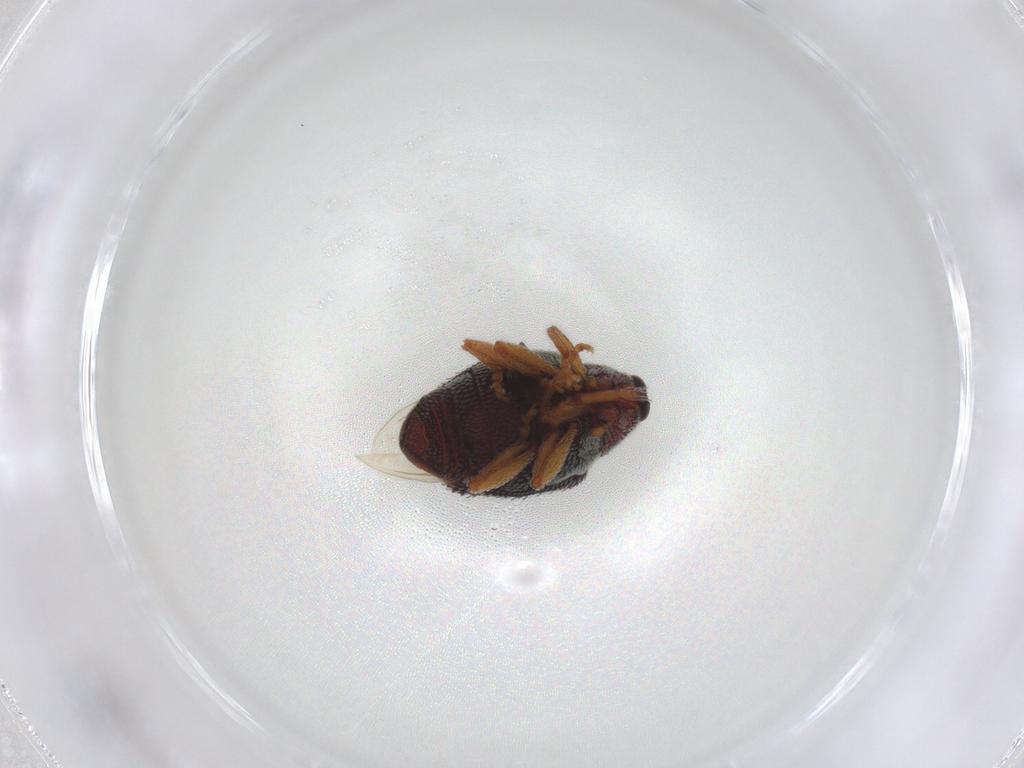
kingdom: Animalia
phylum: Arthropoda
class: Insecta
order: Coleoptera
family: Curculionidae
